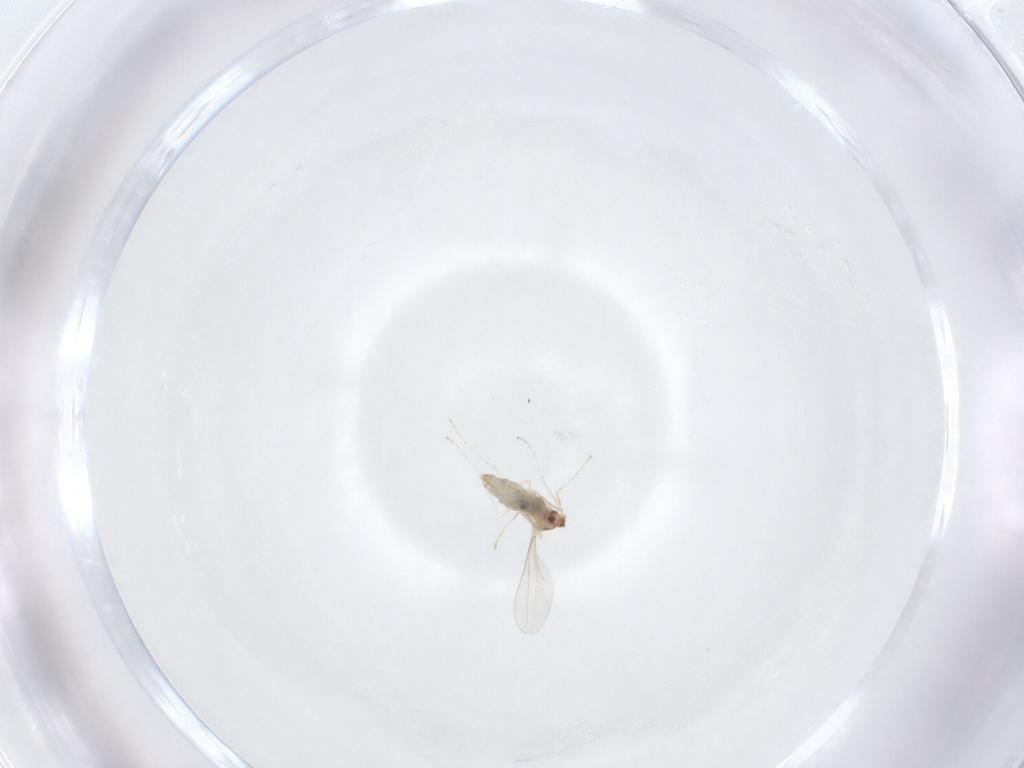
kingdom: Animalia
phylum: Arthropoda
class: Insecta
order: Diptera
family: Cecidomyiidae
